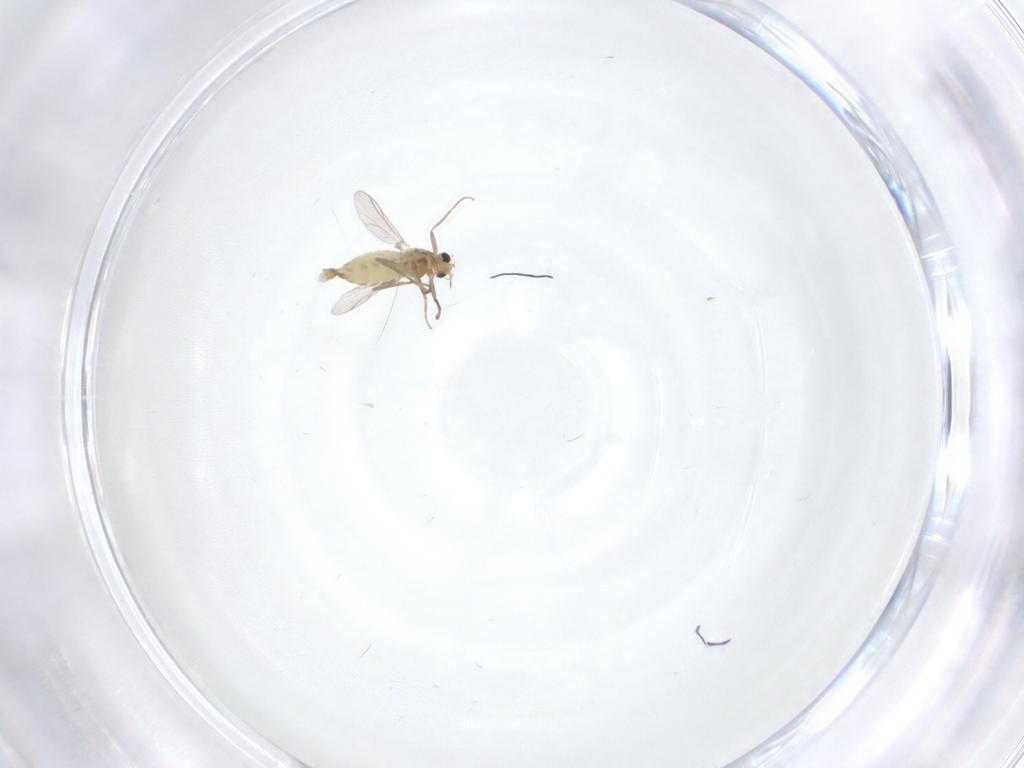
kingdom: Animalia
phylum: Arthropoda
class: Insecta
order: Diptera
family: Chironomidae
